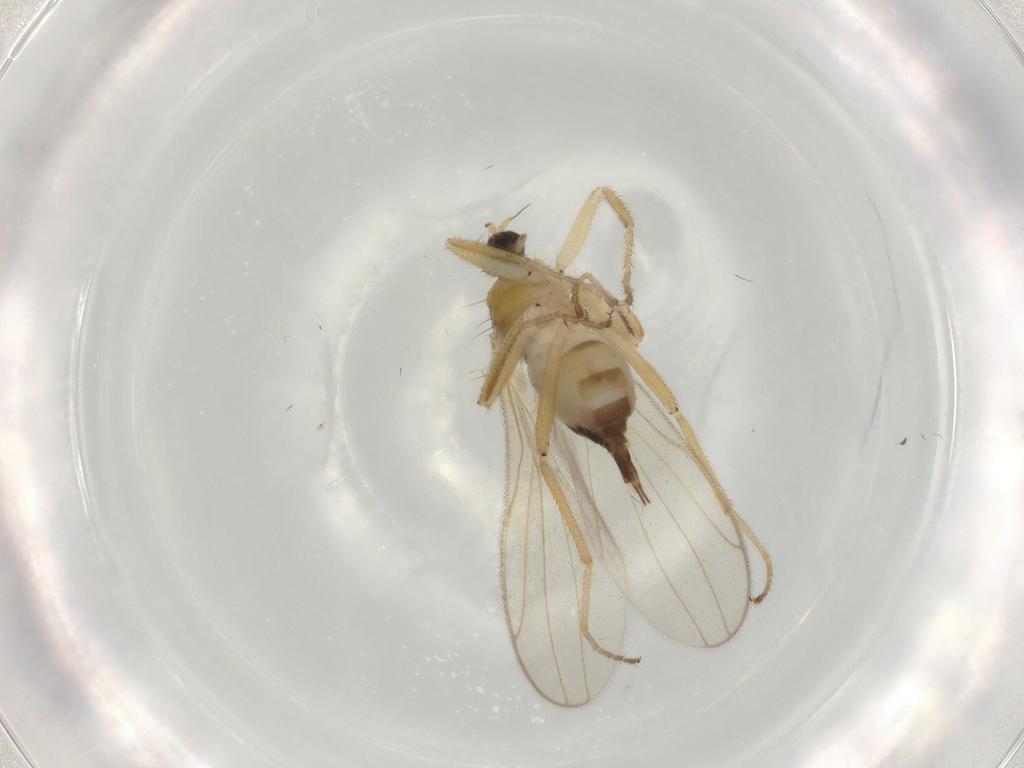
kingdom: Animalia
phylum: Arthropoda
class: Insecta
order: Diptera
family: Hybotidae
